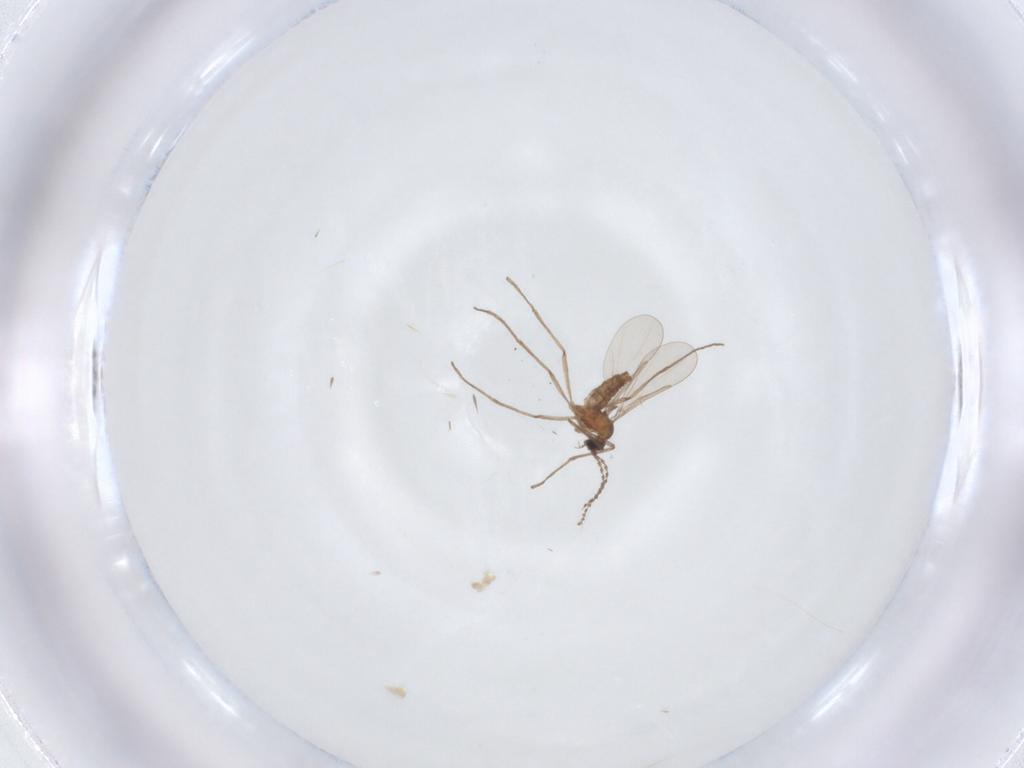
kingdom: Animalia
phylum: Arthropoda
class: Insecta
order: Diptera
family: Cecidomyiidae
